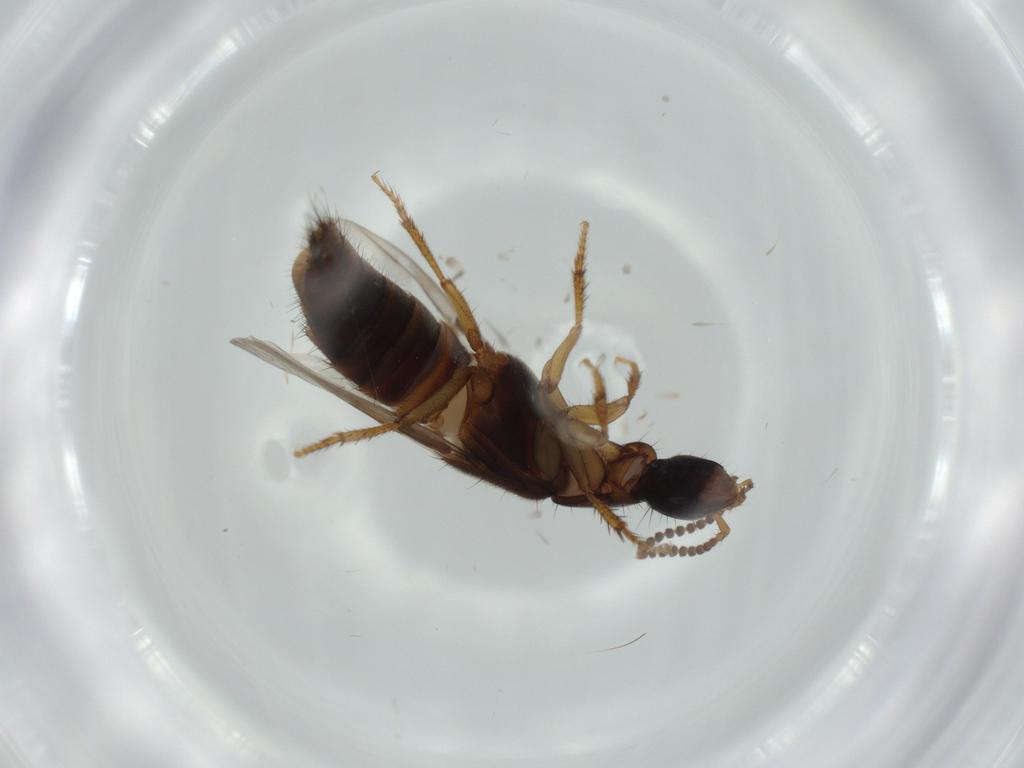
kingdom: Animalia
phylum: Arthropoda
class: Insecta
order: Coleoptera
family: Staphylinidae
